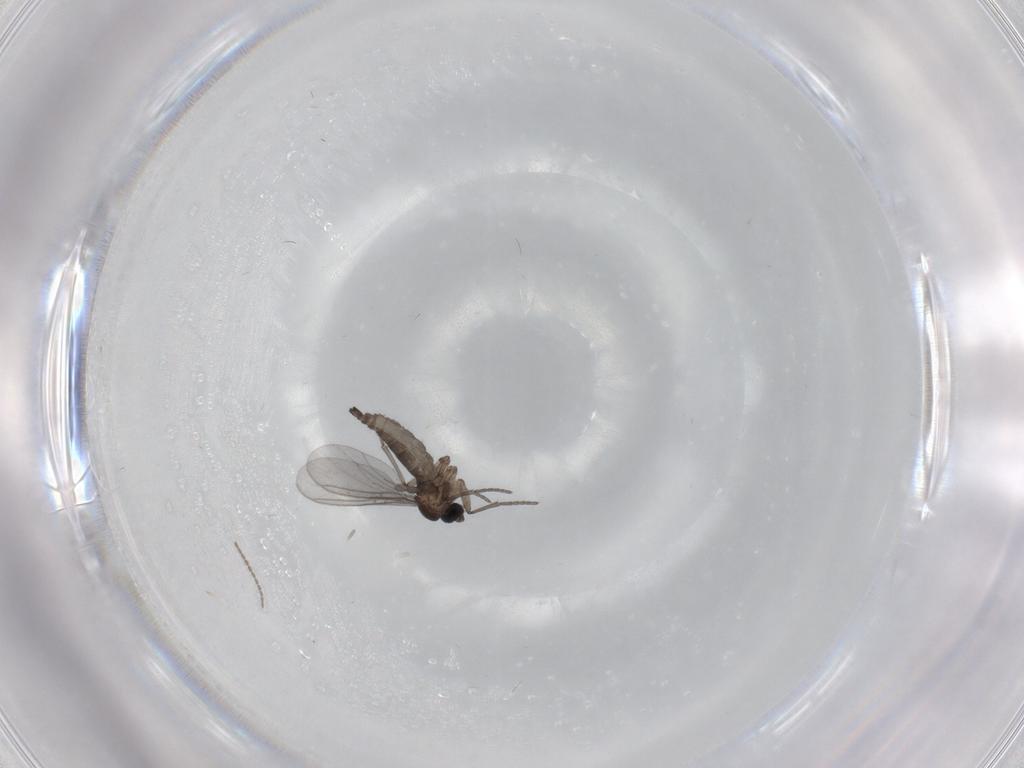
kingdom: Animalia
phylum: Arthropoda
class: Insecta
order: Diptera
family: Sciaridae
